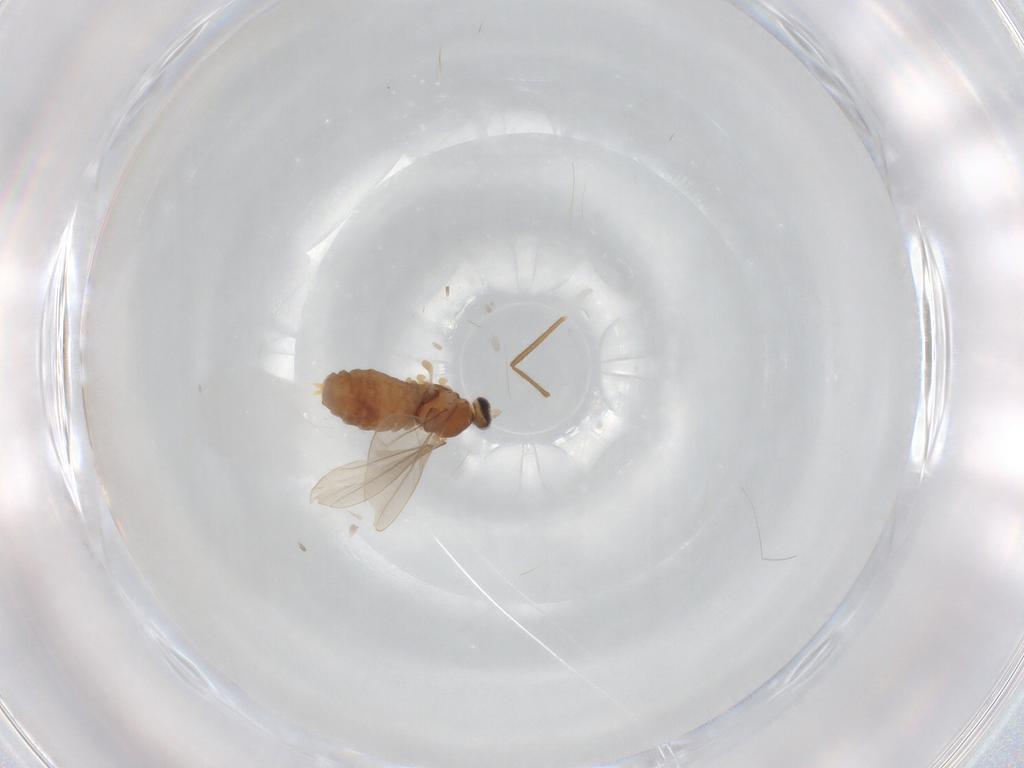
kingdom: Animalia
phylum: Arthropoda
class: Insecta
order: Diptera
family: Cecidomyiidae
